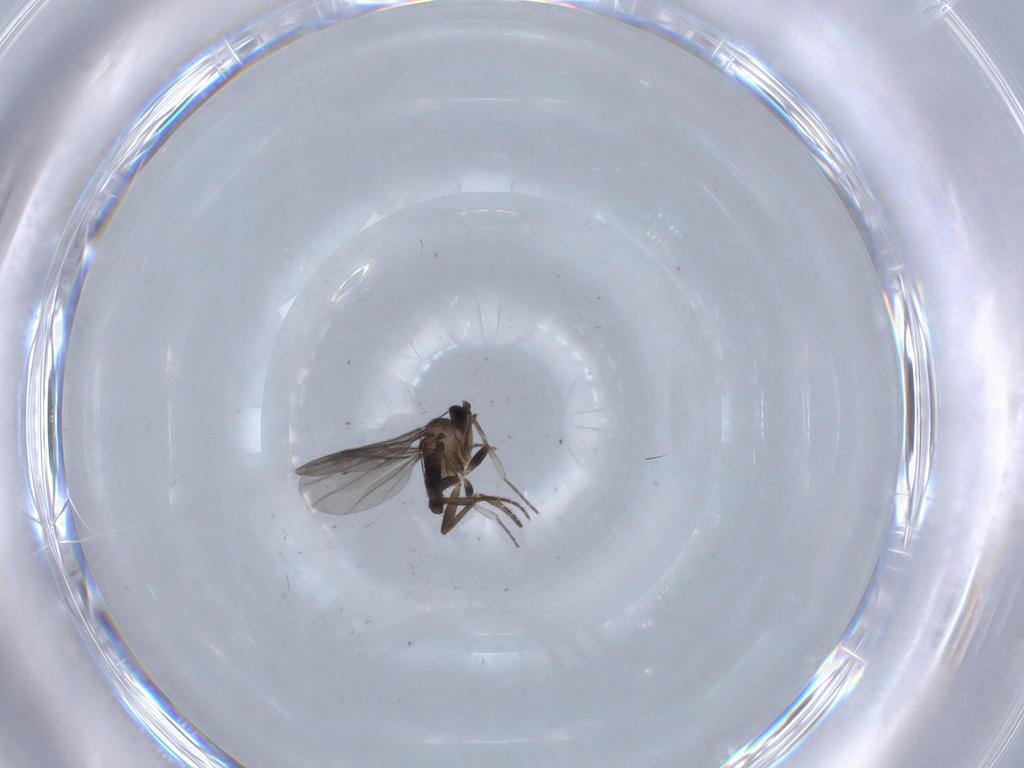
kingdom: Animalia
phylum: Arthropoda
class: Insecta
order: Diptera
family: Phoridae
